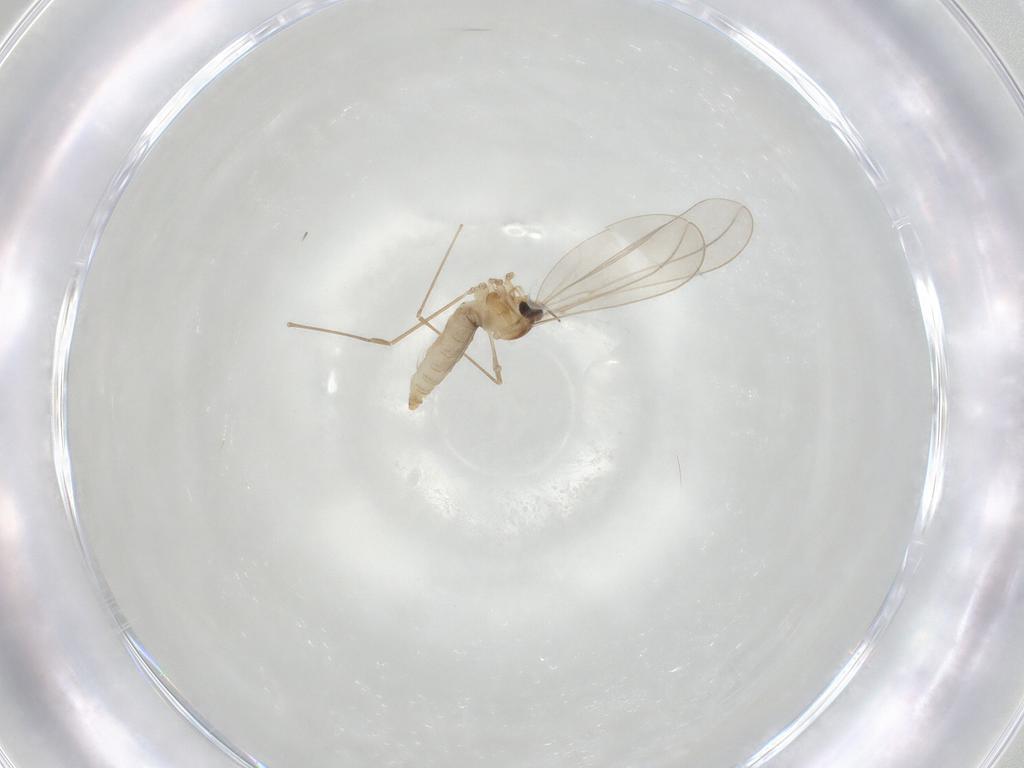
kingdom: Animalia
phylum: Arthropoda
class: Insecta
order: Diptera
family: Cecidomyiidae
